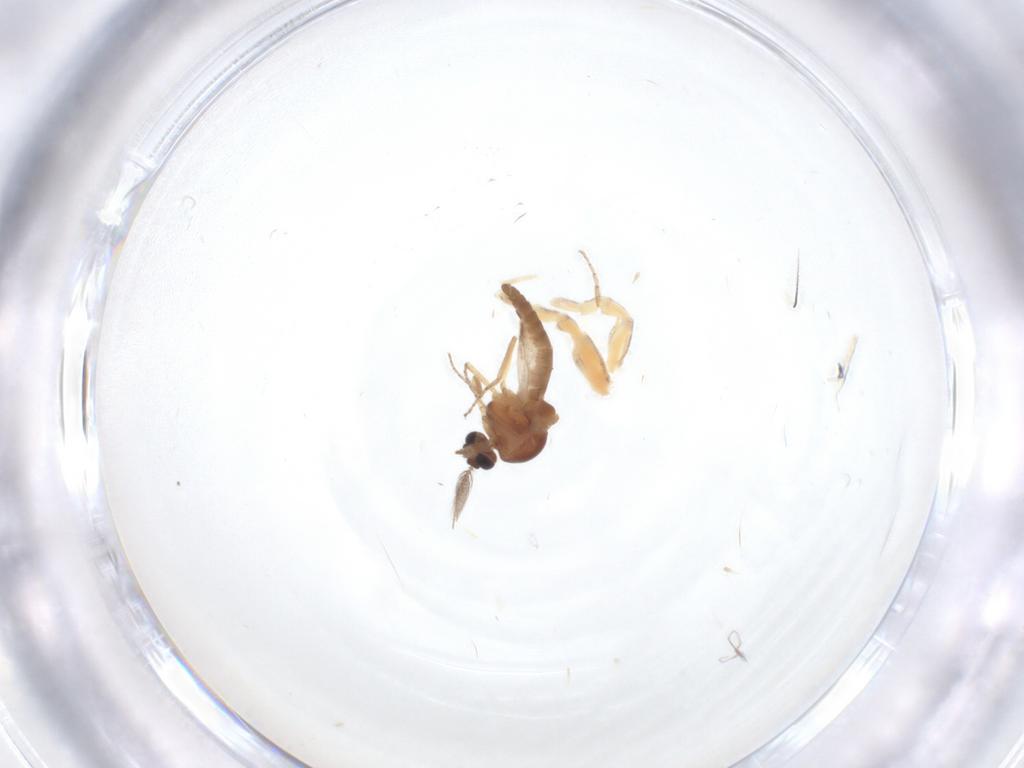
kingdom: Animalia
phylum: Arthropoda
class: Insecta
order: Diptera
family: Ceratopogonidae
